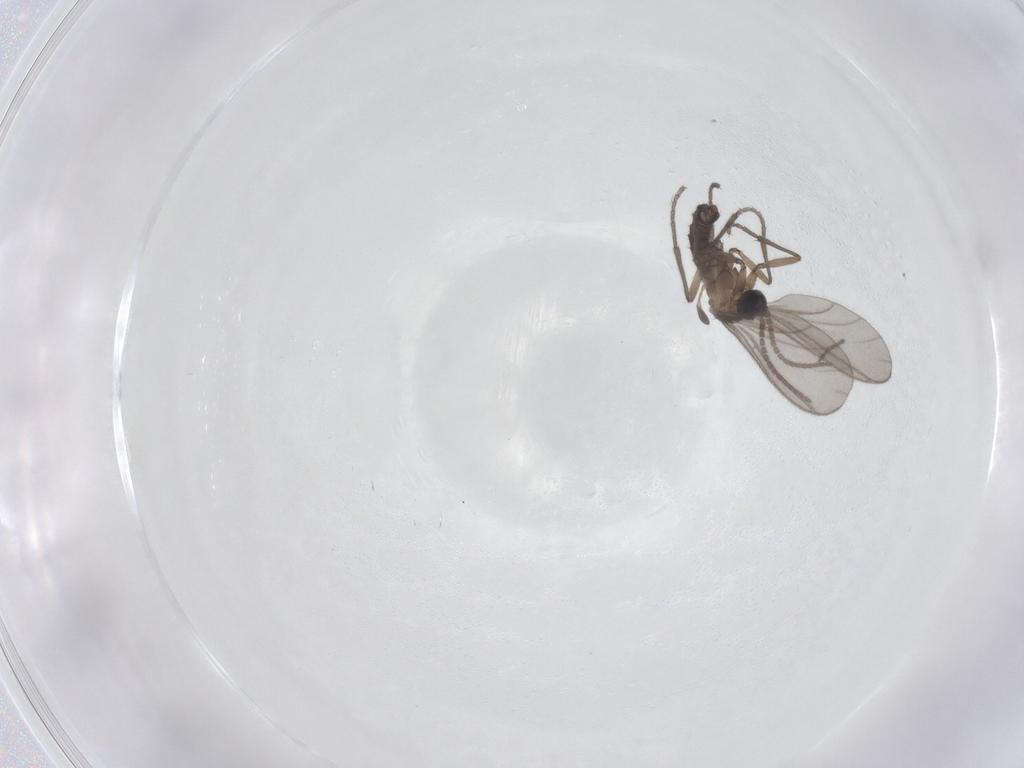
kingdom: Animalia
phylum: Arthropoda
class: Insecta
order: Diptera
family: Sciaridae
